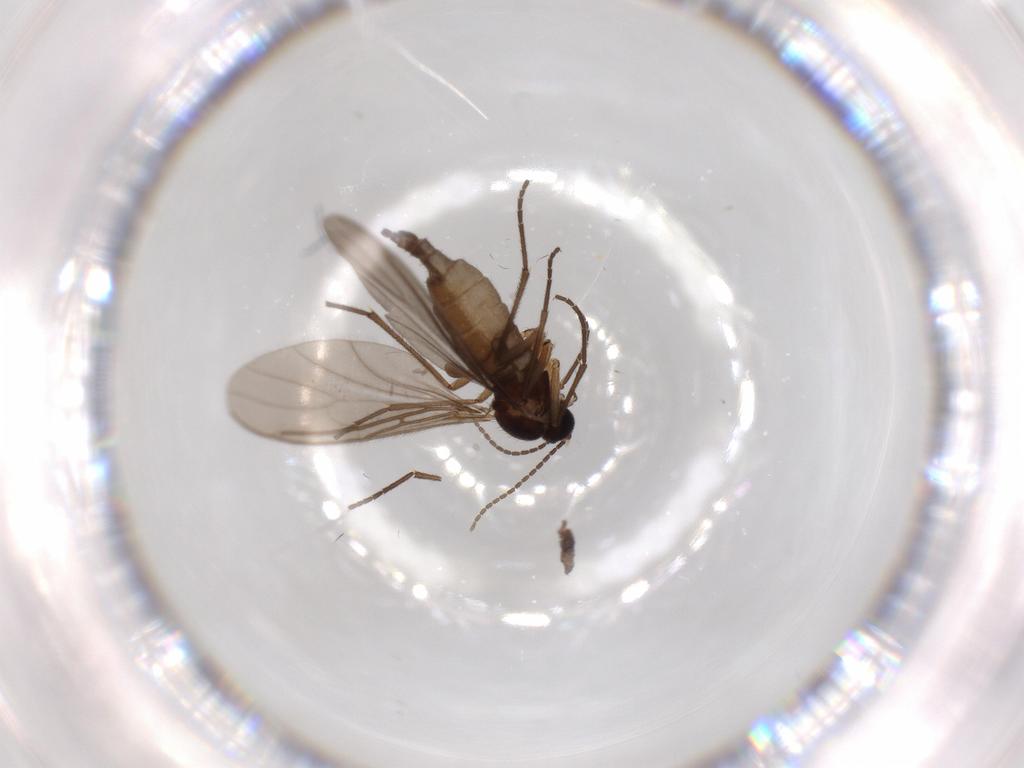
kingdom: Animalia
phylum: Arthropoda
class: Insecta
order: Diptera
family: Sciaridae
